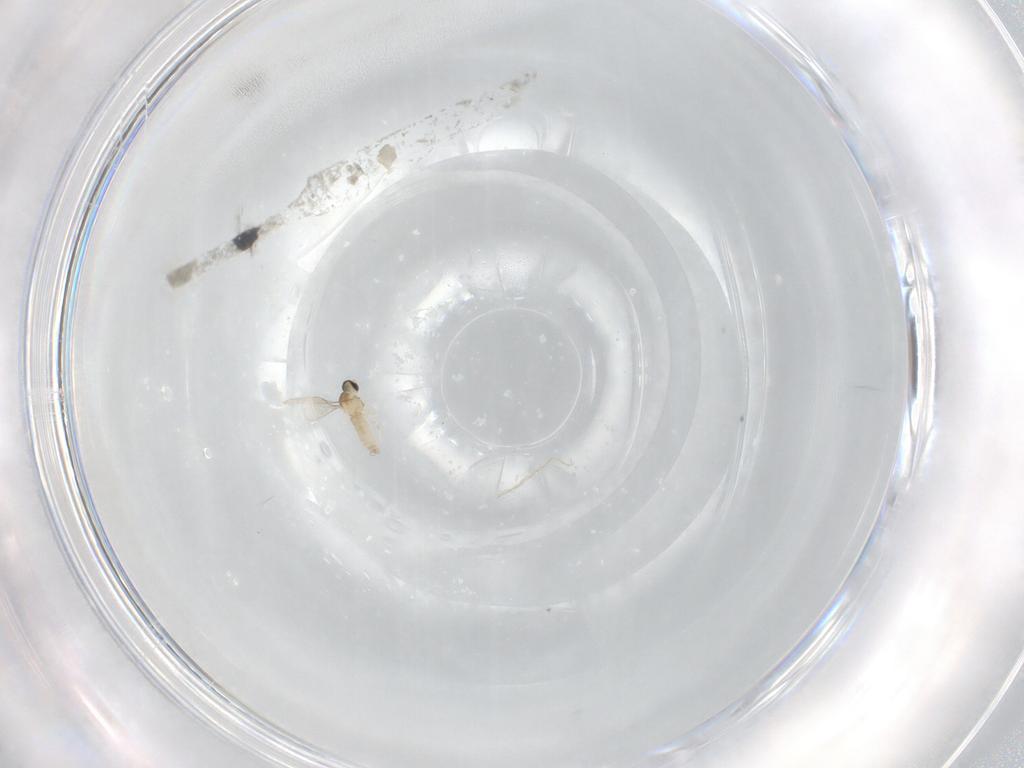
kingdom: Animalia
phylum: Arthropoda
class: Insecta
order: Diptera
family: Psychodidae
